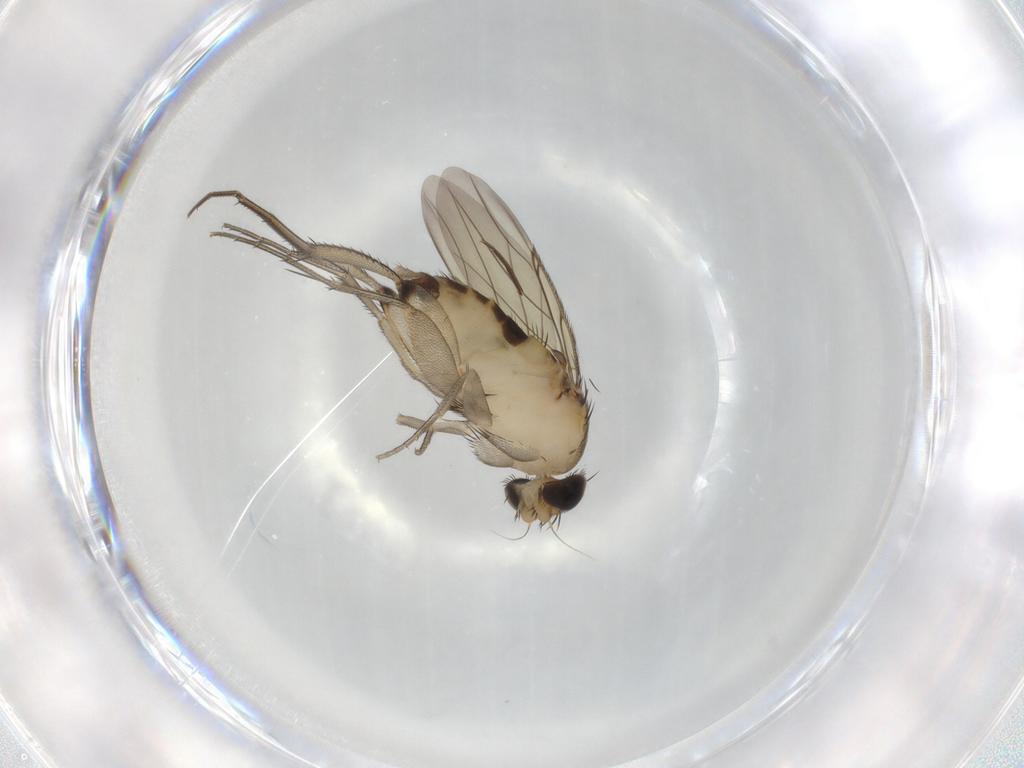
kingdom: Animalia
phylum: Arthropoda
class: Insecta
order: Diptera
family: Phoridae
